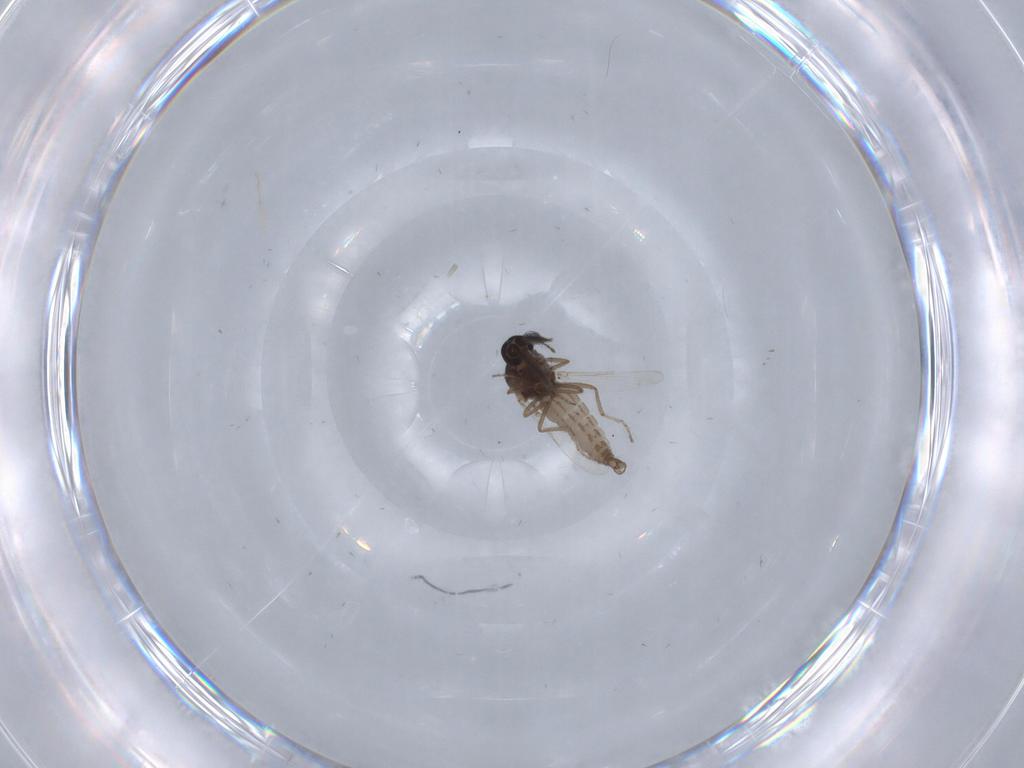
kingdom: Animalia
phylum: Arthropoda
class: Insecta
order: Diptera
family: Ceratopogonidae
